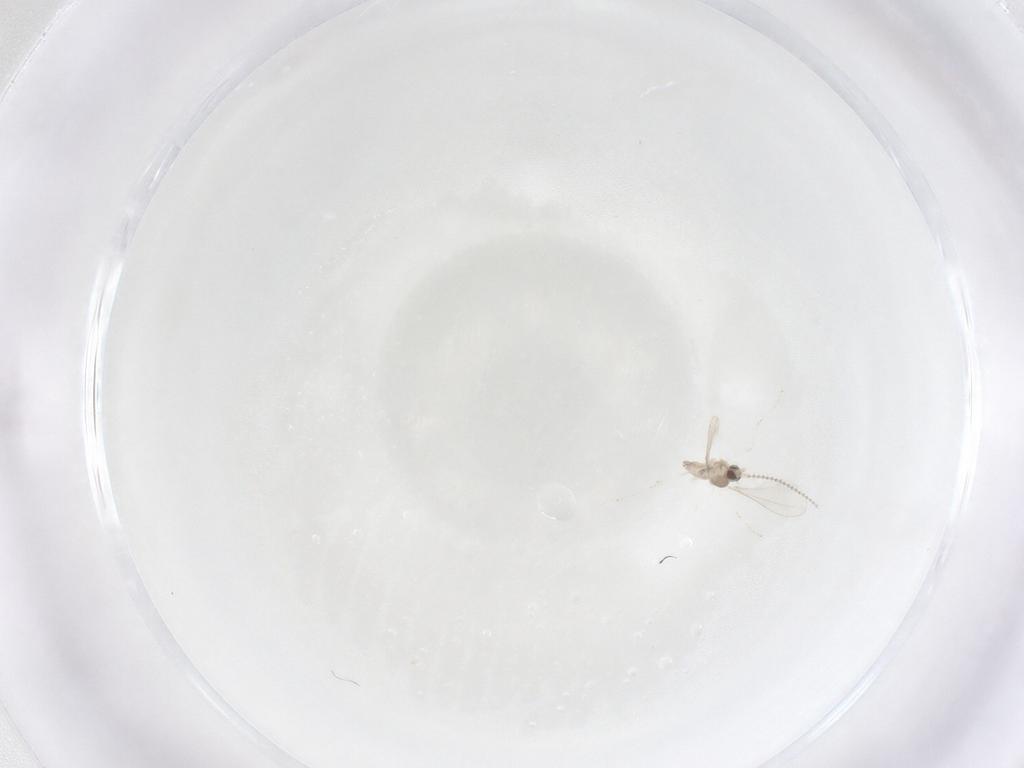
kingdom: Animalia
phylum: Arthropoda
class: Insecta
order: Diptera
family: Cecidomyiidae
